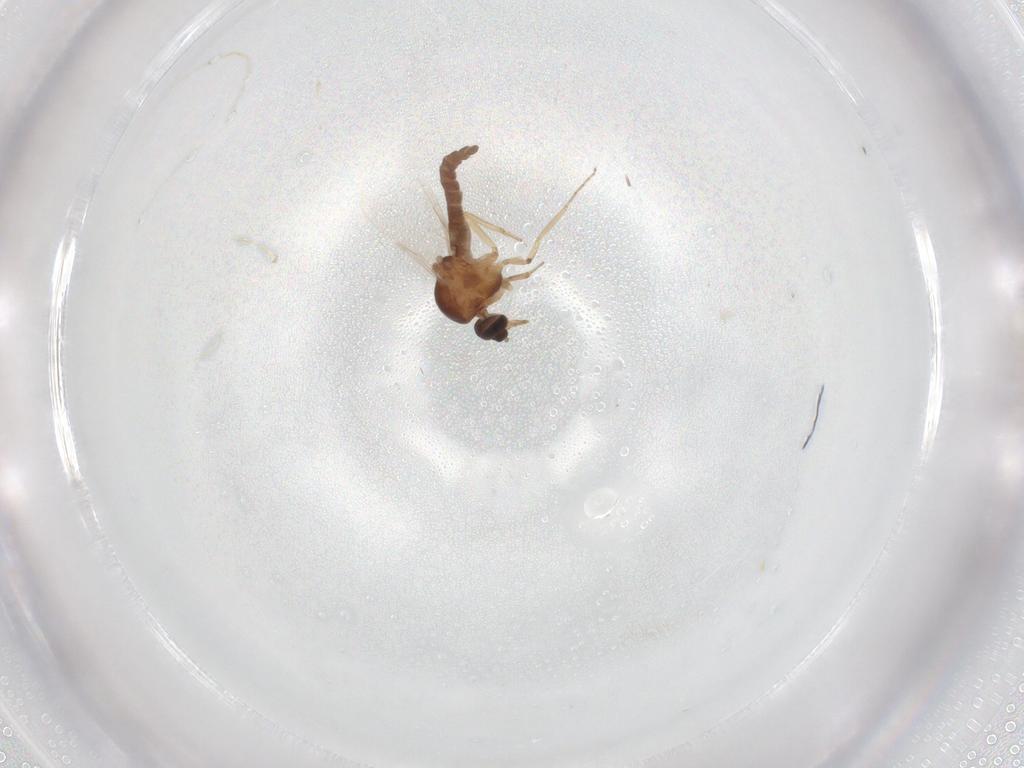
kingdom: Animalia
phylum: Arthropoda
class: Insecta
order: Diptera
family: Ceratopogonidae
